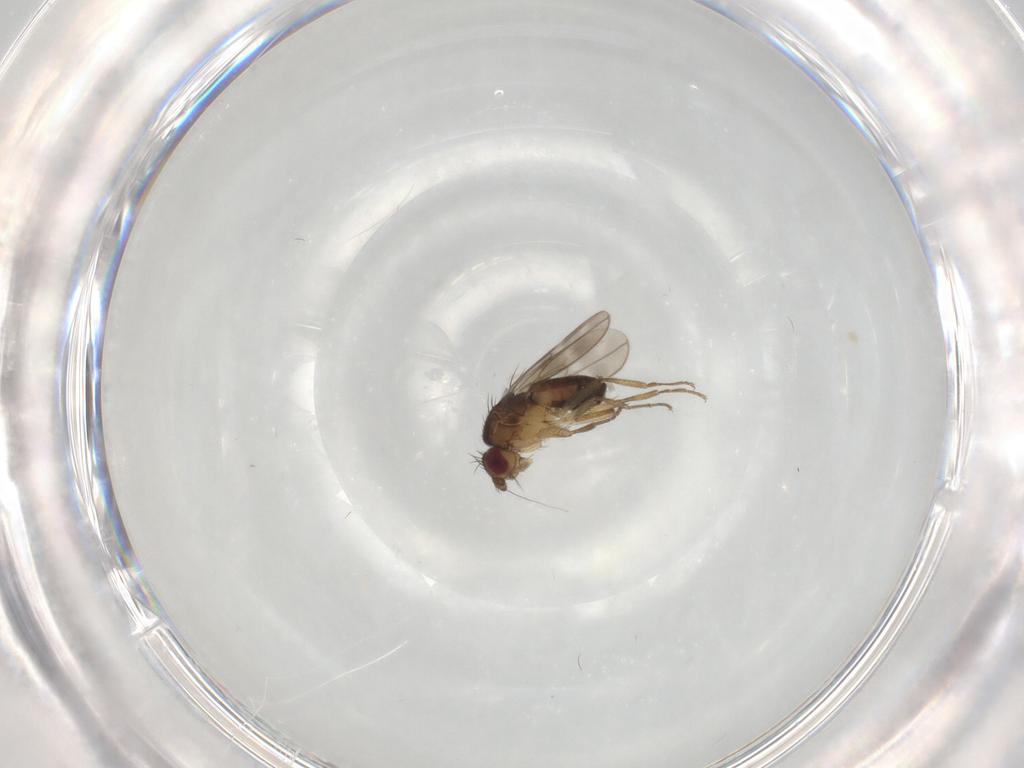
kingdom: Animalia
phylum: Arthropoda
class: Insecta
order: Diptera
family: Sphaeroceridae
